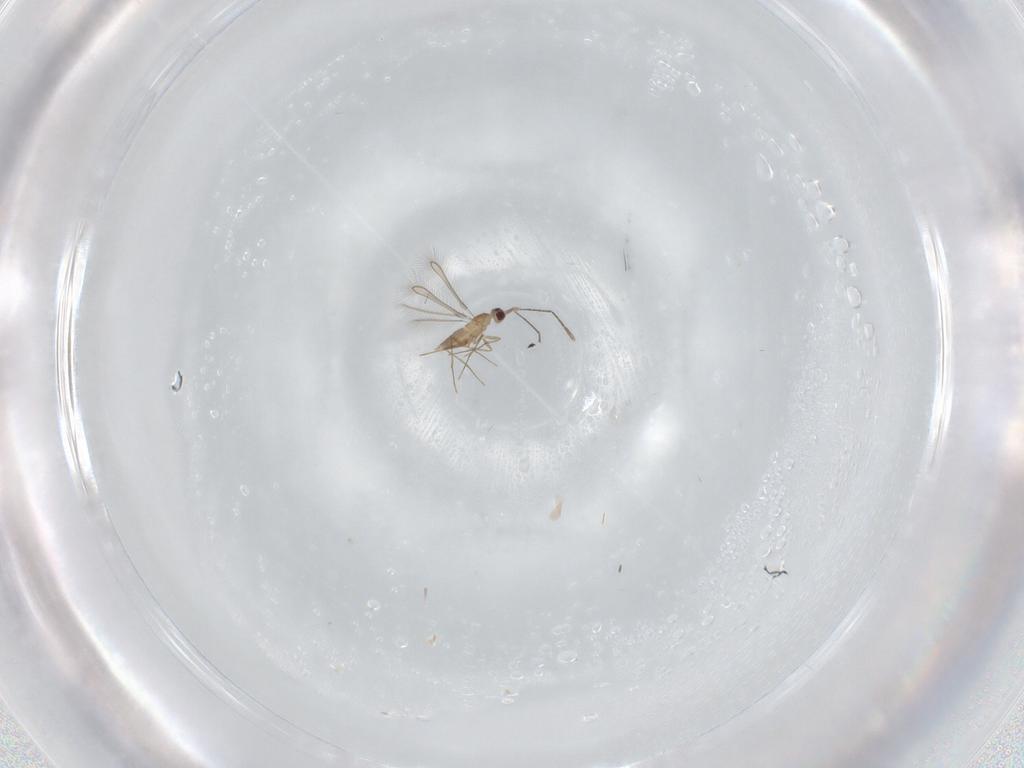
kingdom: Animalia
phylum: Arthropoda
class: Insecta
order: Hymenoptera
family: Mymaridae
